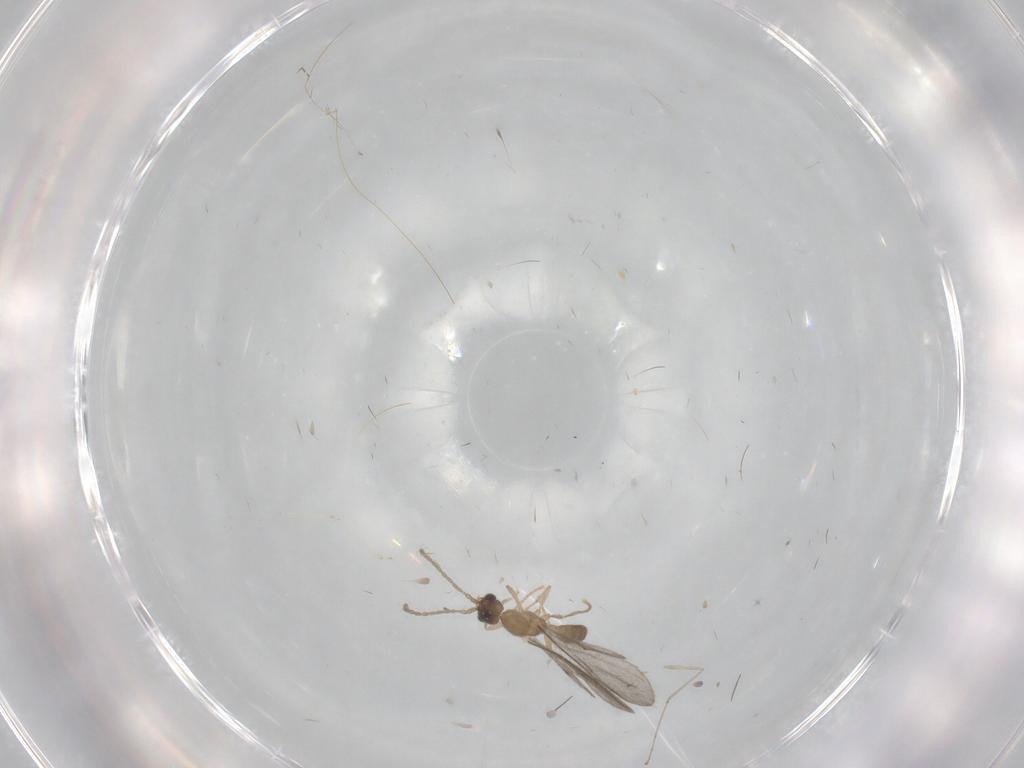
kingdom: Animalia
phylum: Arthropoda
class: Insecta
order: Hymenoptera
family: Formicidae
